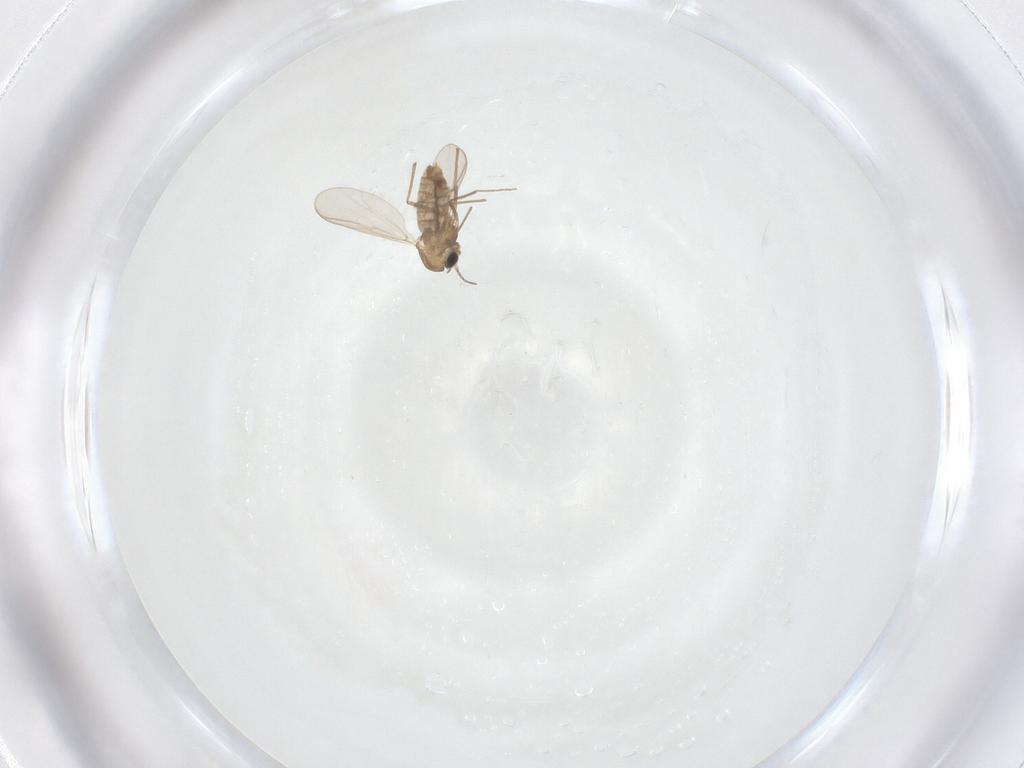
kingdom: Animalia
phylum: Arthropoda
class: Insecta
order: Diptera
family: Chironomidae
